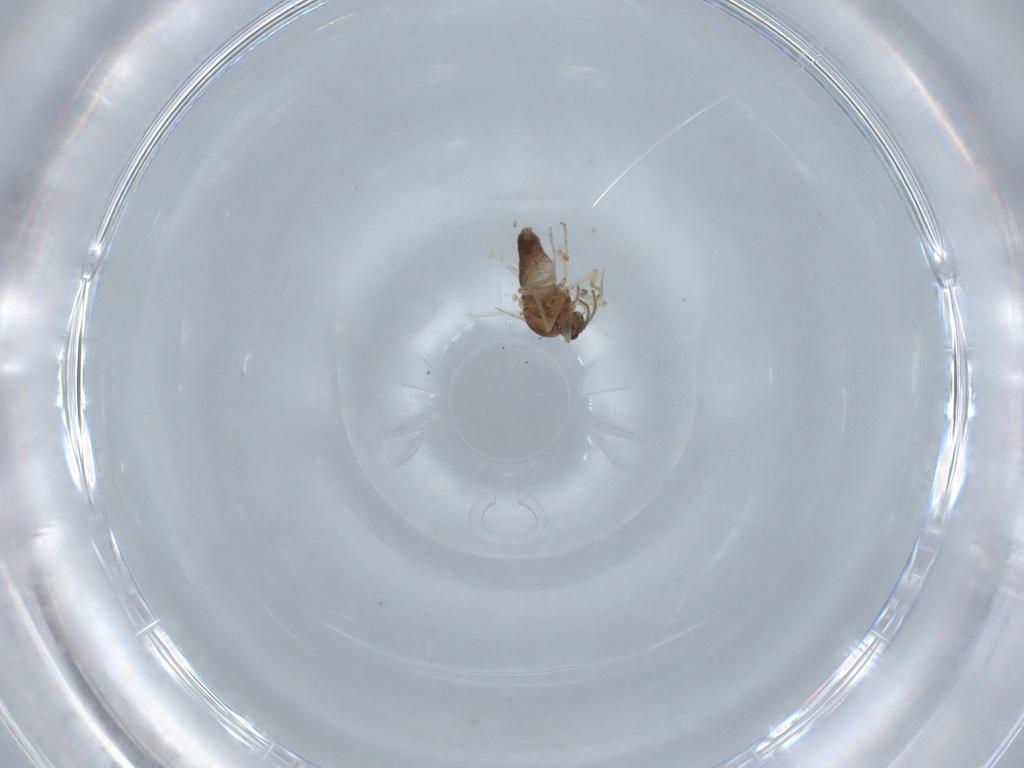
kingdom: Animalia
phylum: Arthropoda
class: Insecta
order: Diptera
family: Ceratopogonidae
